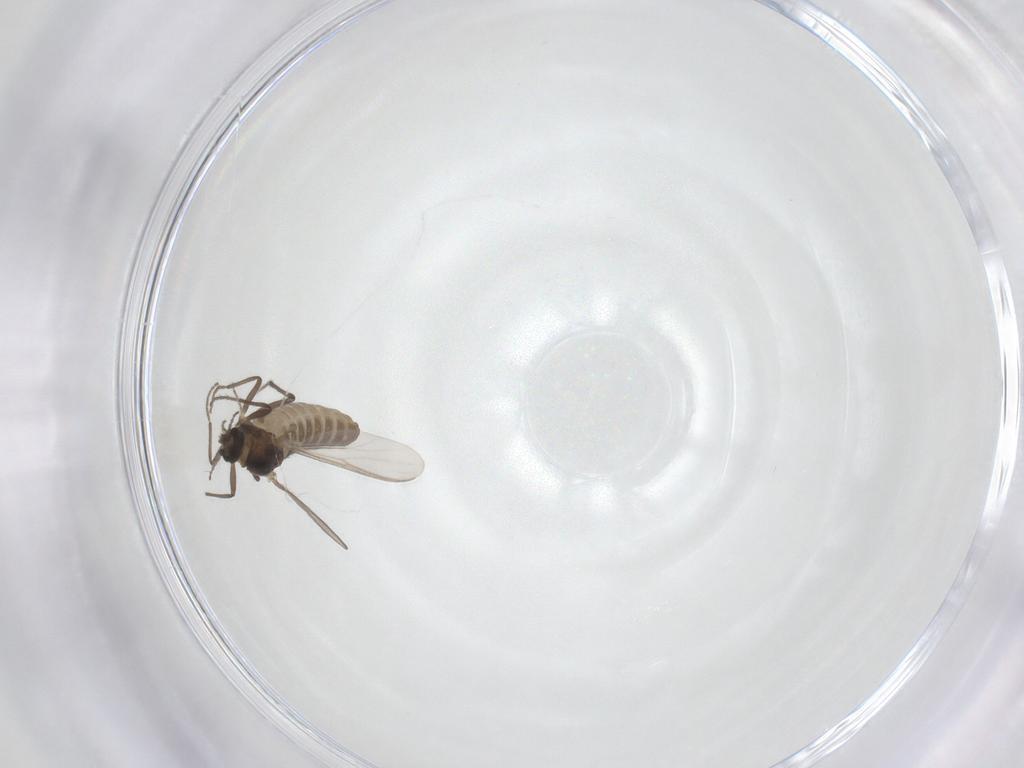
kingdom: Animalia
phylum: Arthropoda
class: Insecta
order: Diptera
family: Chironomidae
